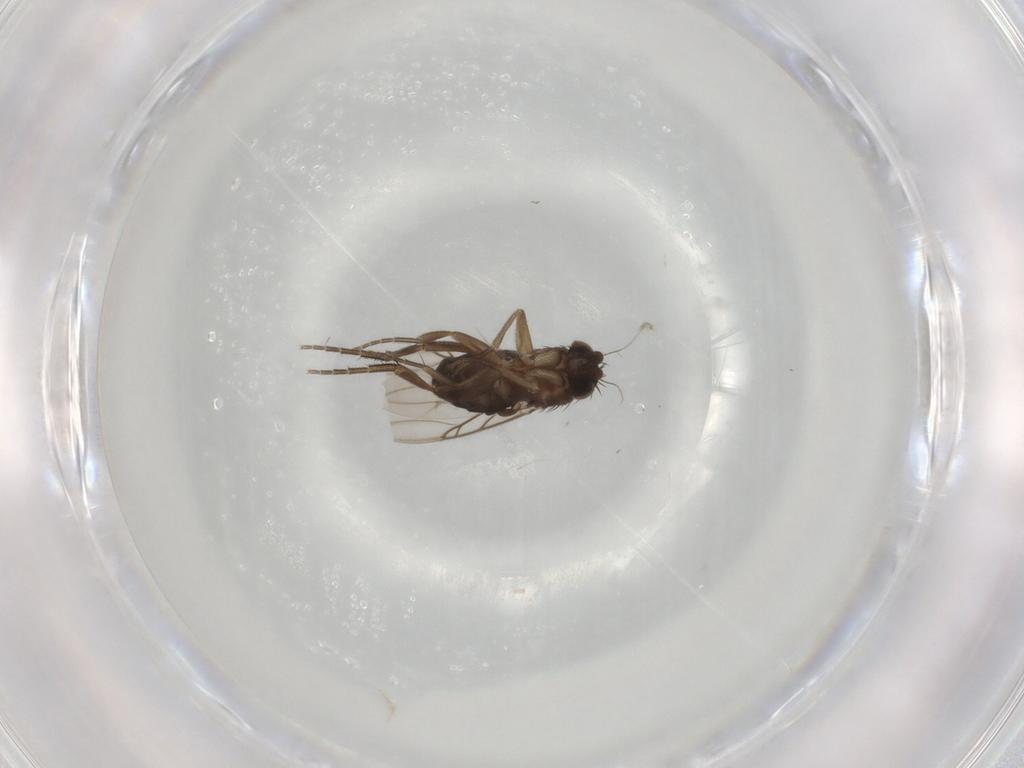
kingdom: Animalia
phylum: Arthropoda
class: Insecta
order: Diptera
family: Phoridae
